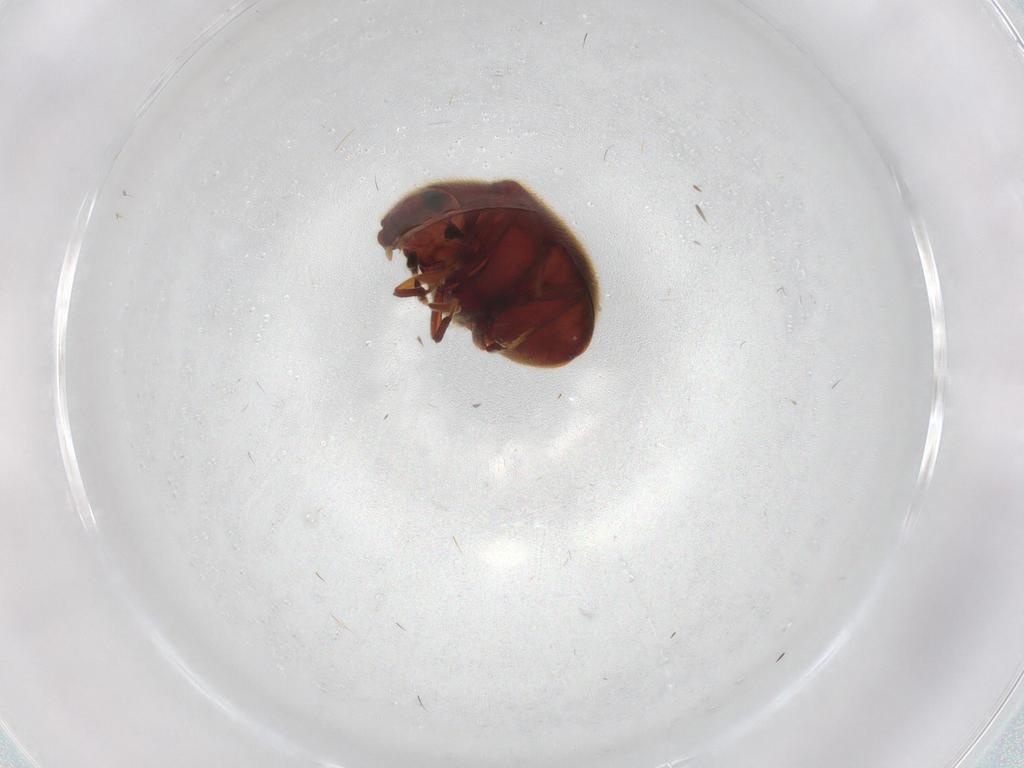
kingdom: Animalia
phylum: Arthropoda
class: Insecta
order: Coleoptera
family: Ptinidae
